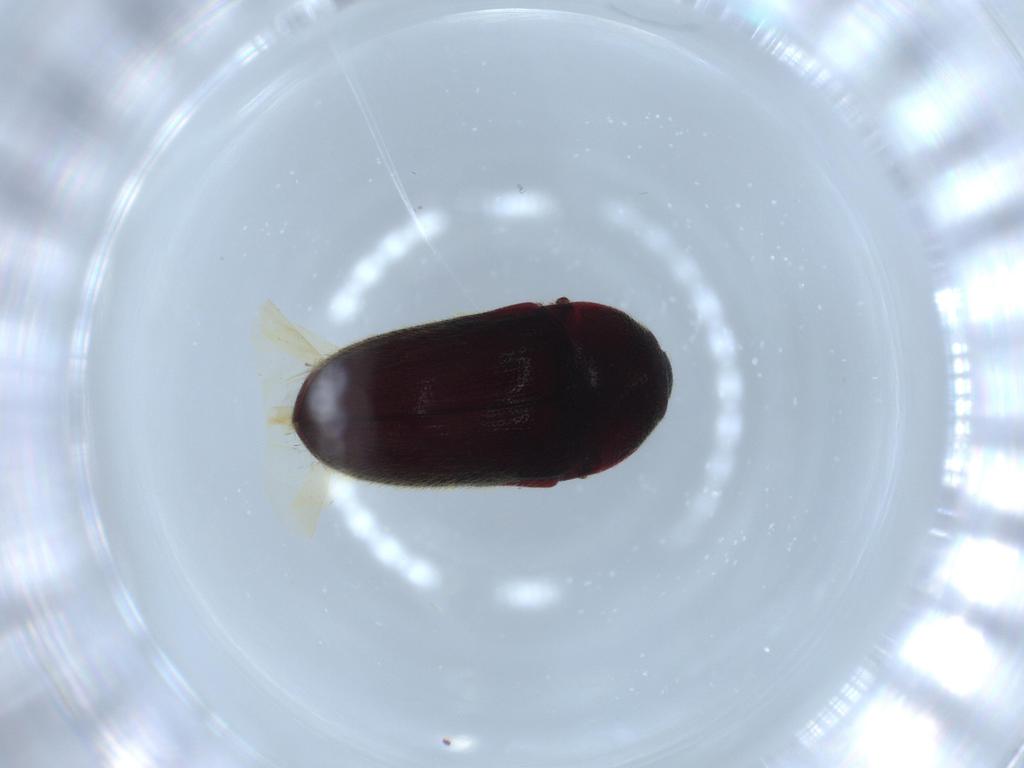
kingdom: Animalia
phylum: Arthropoda
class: Insecta
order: Coleoptera
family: Throscidae
